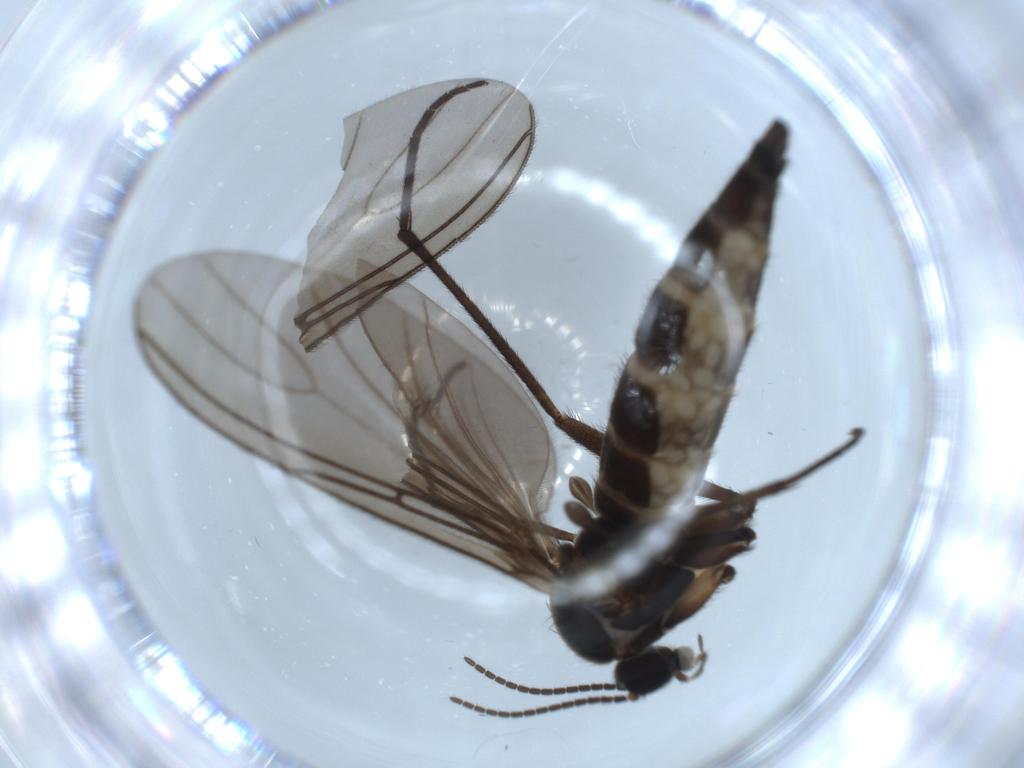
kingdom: Animalia
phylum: Arthropoda
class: Insecta
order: Diptera
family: Sciaridae
